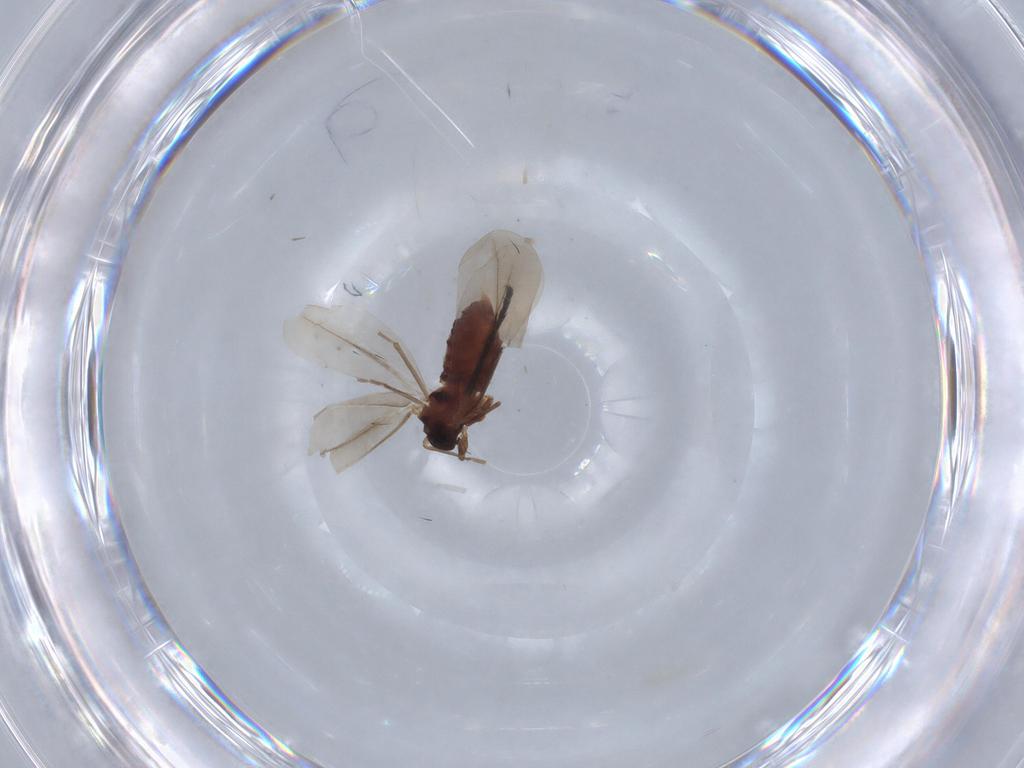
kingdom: Animalia
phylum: Arthropoda
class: Insecta
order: Hemiptera
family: Aleyrodidae
